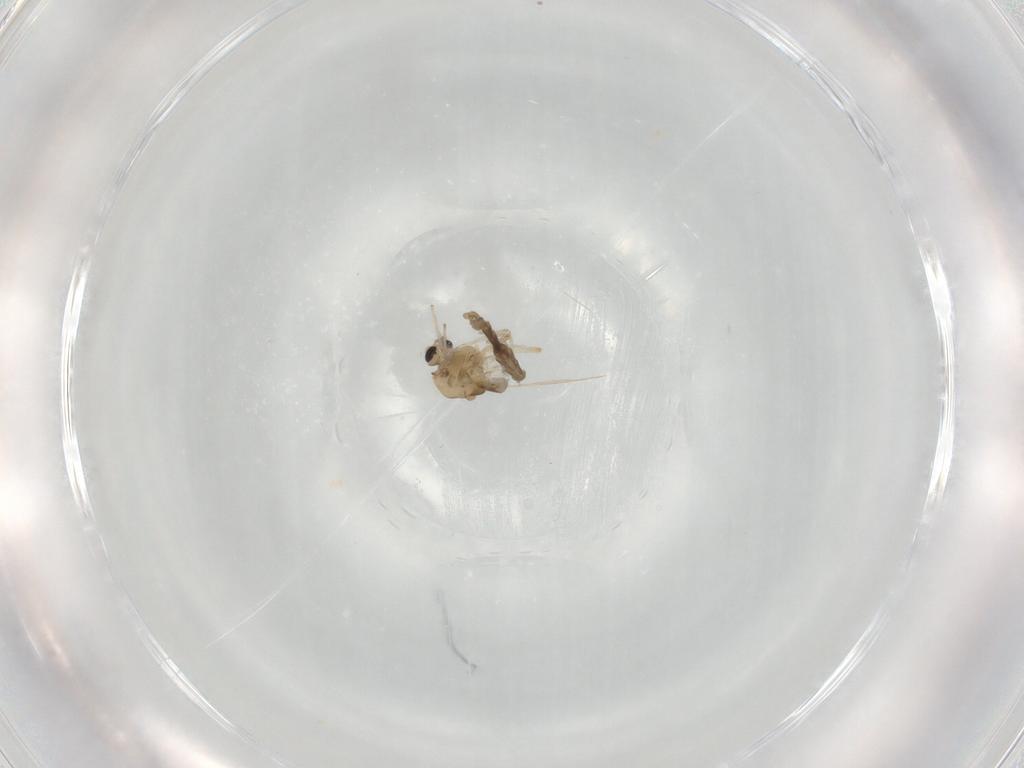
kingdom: Animalia
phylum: Arthropoda
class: Insecta
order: Diptera
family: Chironomidae
